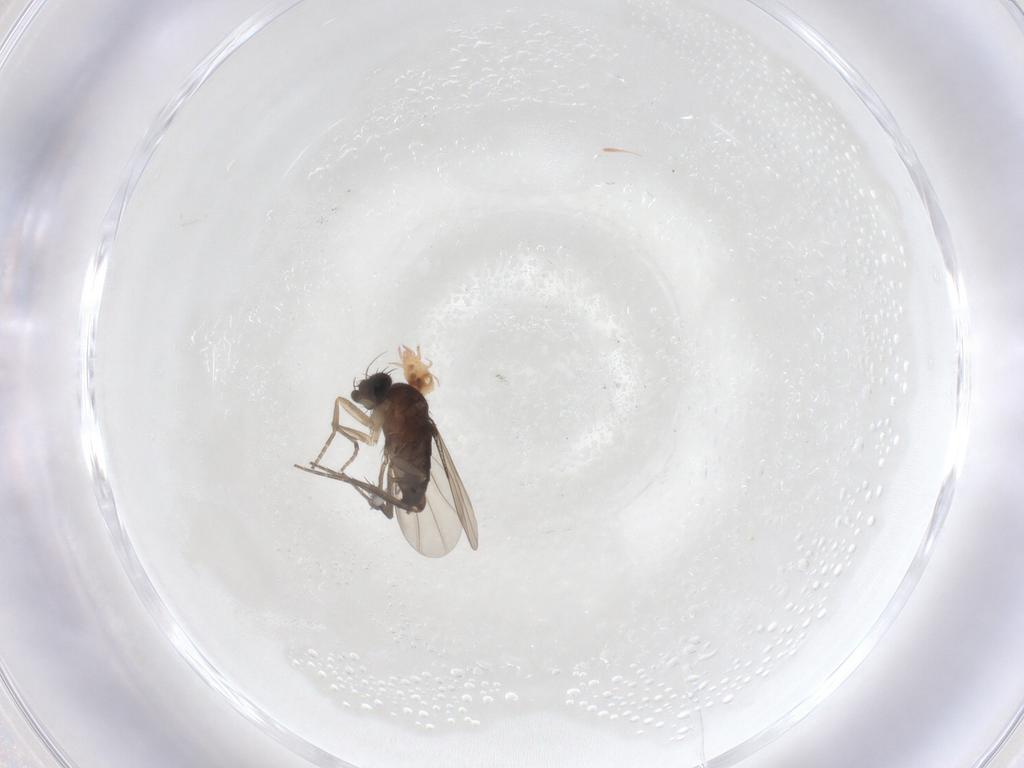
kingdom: Animalia
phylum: Arthropoda
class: Insecta
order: Diptera
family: Phoridae
